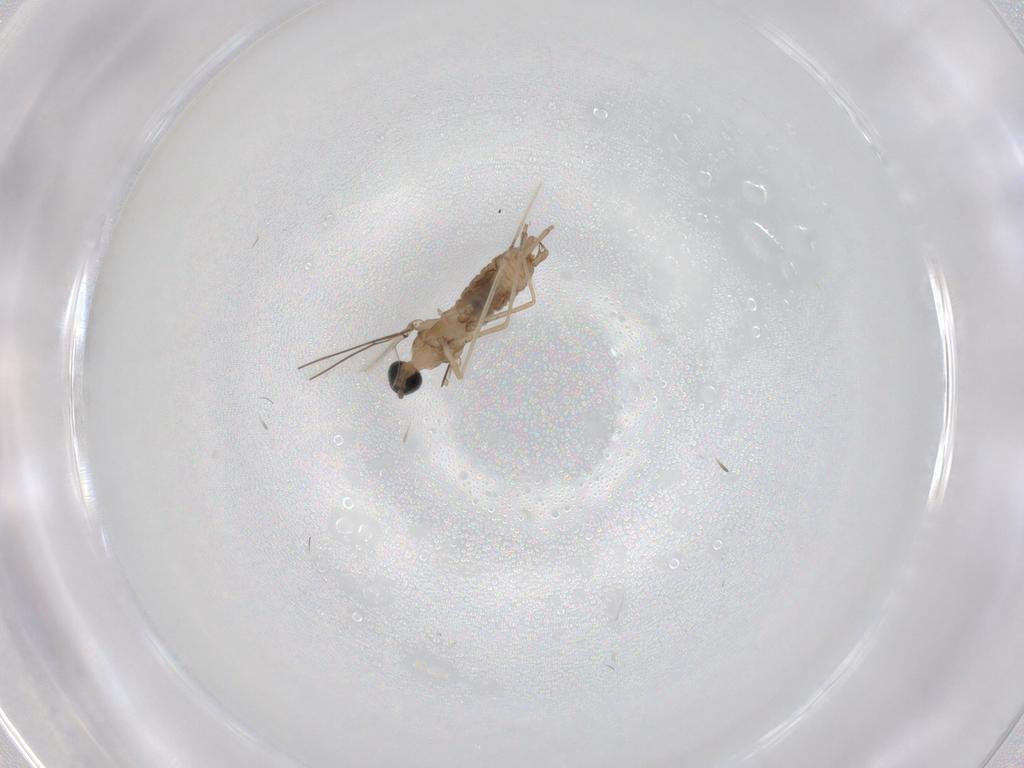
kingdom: Animalia
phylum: Arthropoda
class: Insecta
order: Diptera
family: Cecidomyiidae
